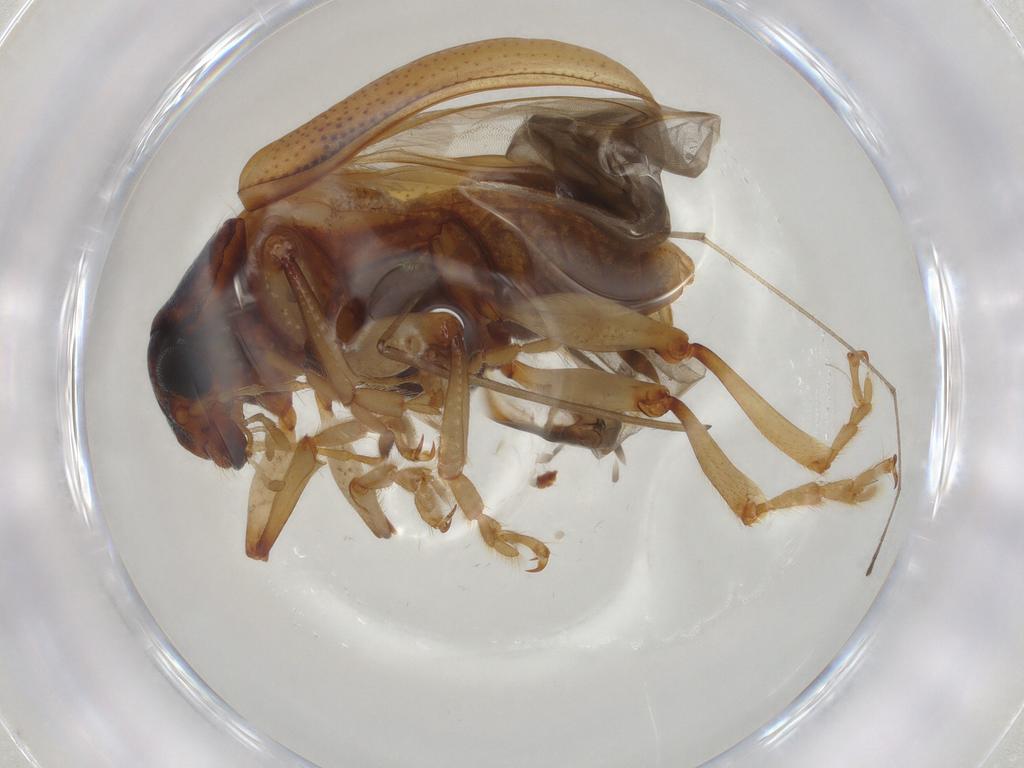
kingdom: Animalia
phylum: Arthropoda
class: Insecta
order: Coleoptera
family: Chrysomelidae
